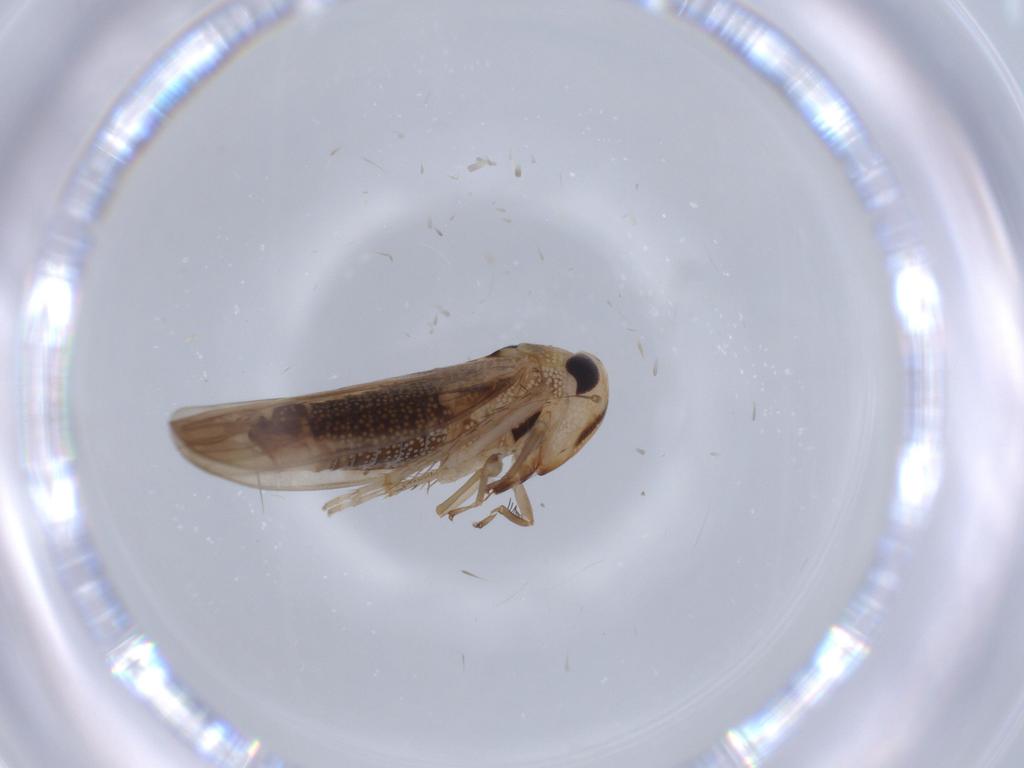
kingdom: Animalia
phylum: Arthropoda
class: Insecta
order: Hemiptera
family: Cicadellidae
